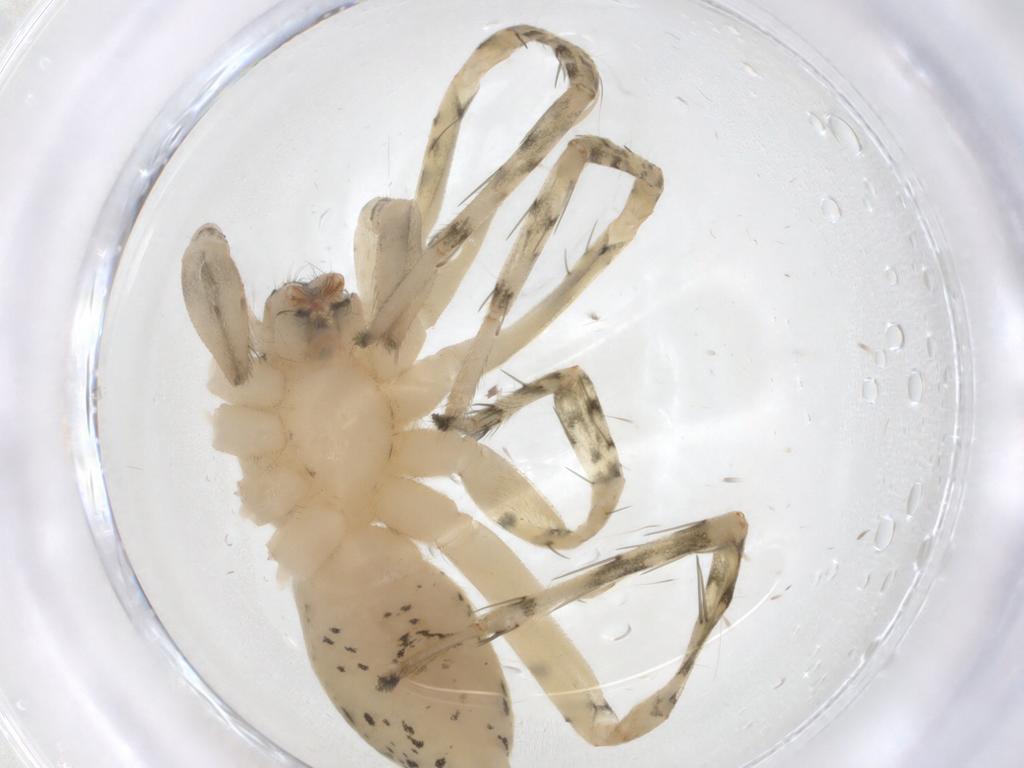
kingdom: Animalia
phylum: Arthropoda
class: Arachnida
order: Araneae
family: Anyphaenidae
